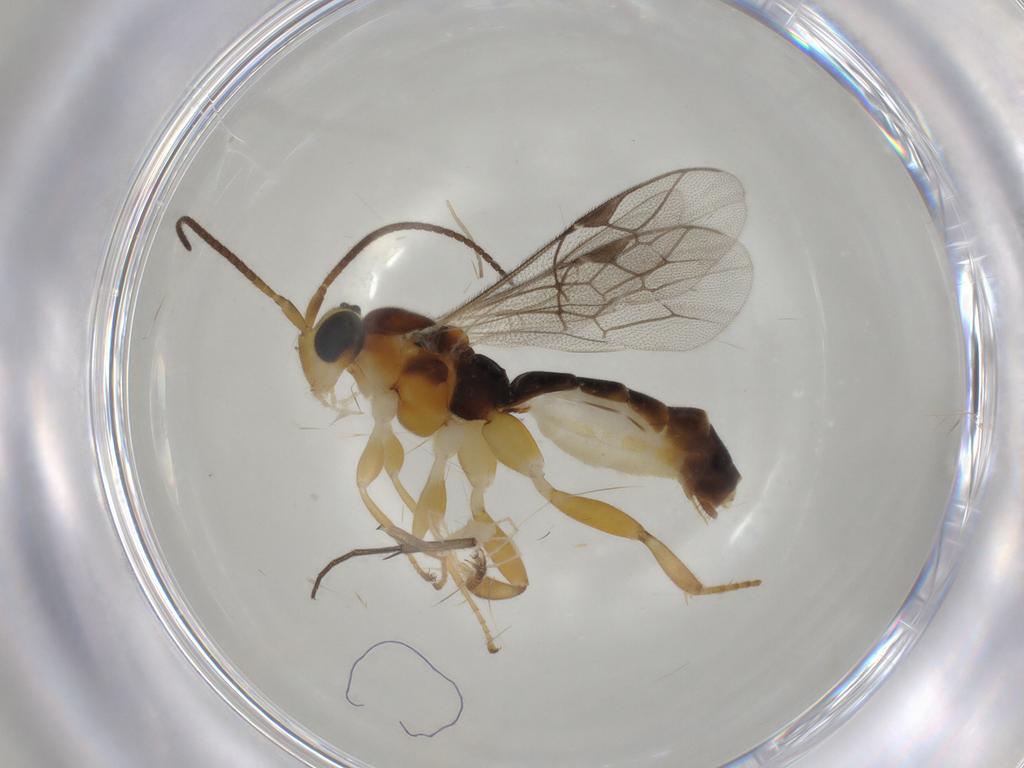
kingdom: Animalia
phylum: Arthropoda
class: Insecta
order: Hymenoptera
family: Ichneumonidae
